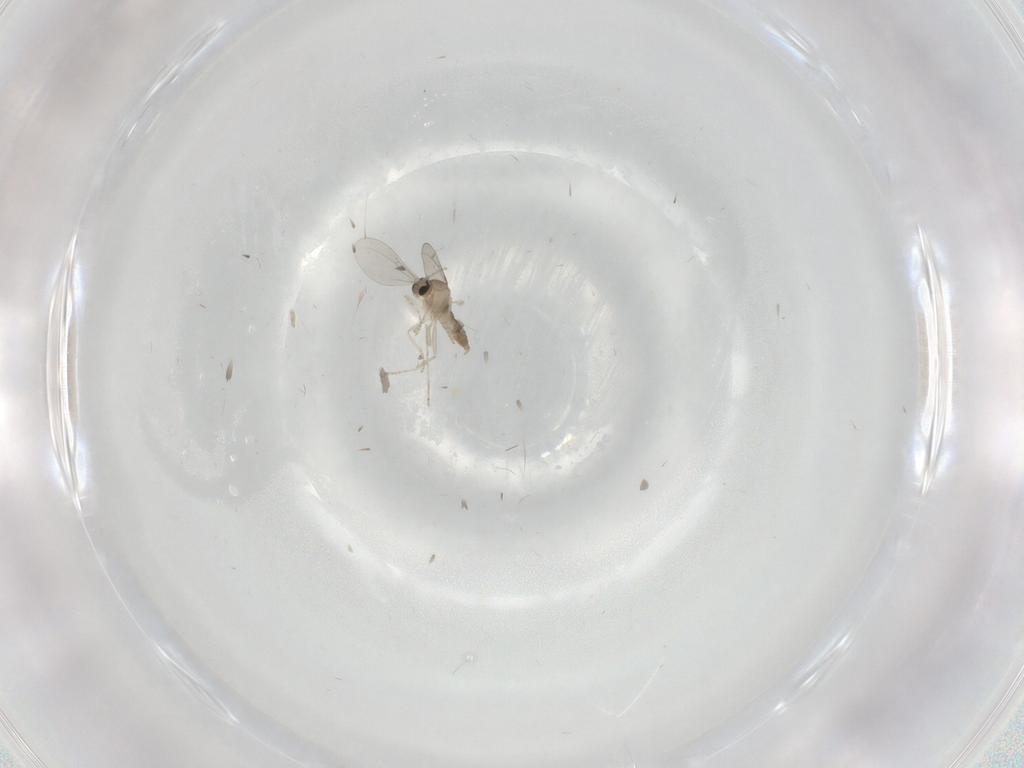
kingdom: Animalia
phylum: Arthropoda
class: Insecta
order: Diptera
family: Cecidomyiidae
